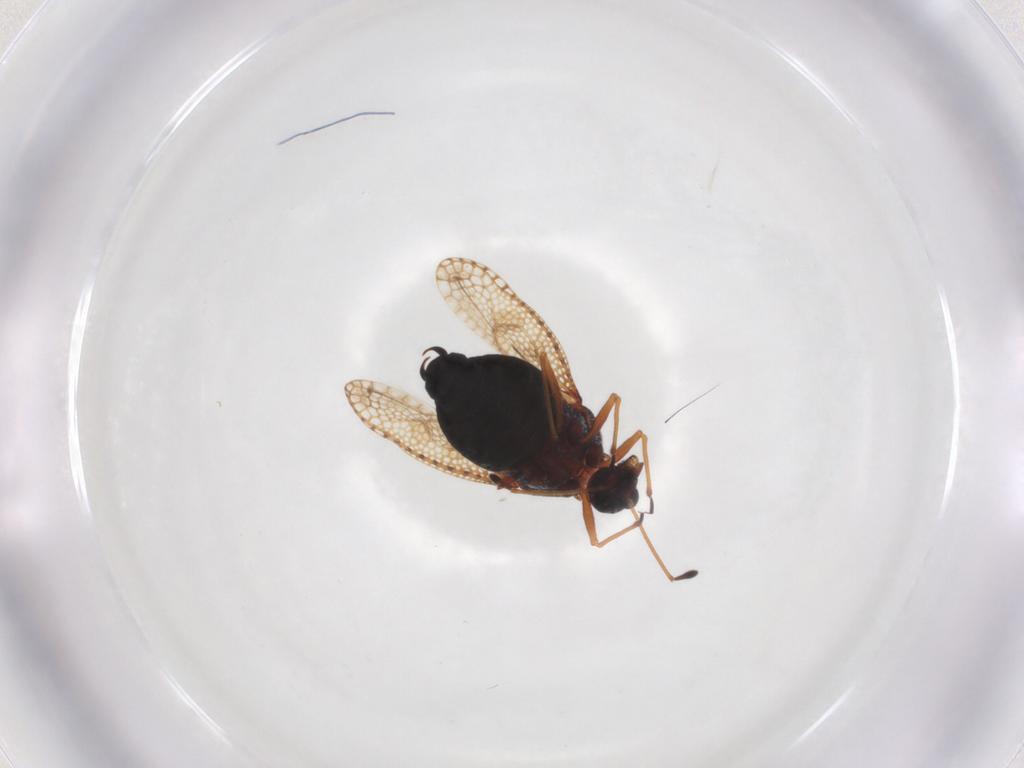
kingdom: Animalia
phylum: Arthropoda
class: Insecta
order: Hemiptera
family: Tingidae
